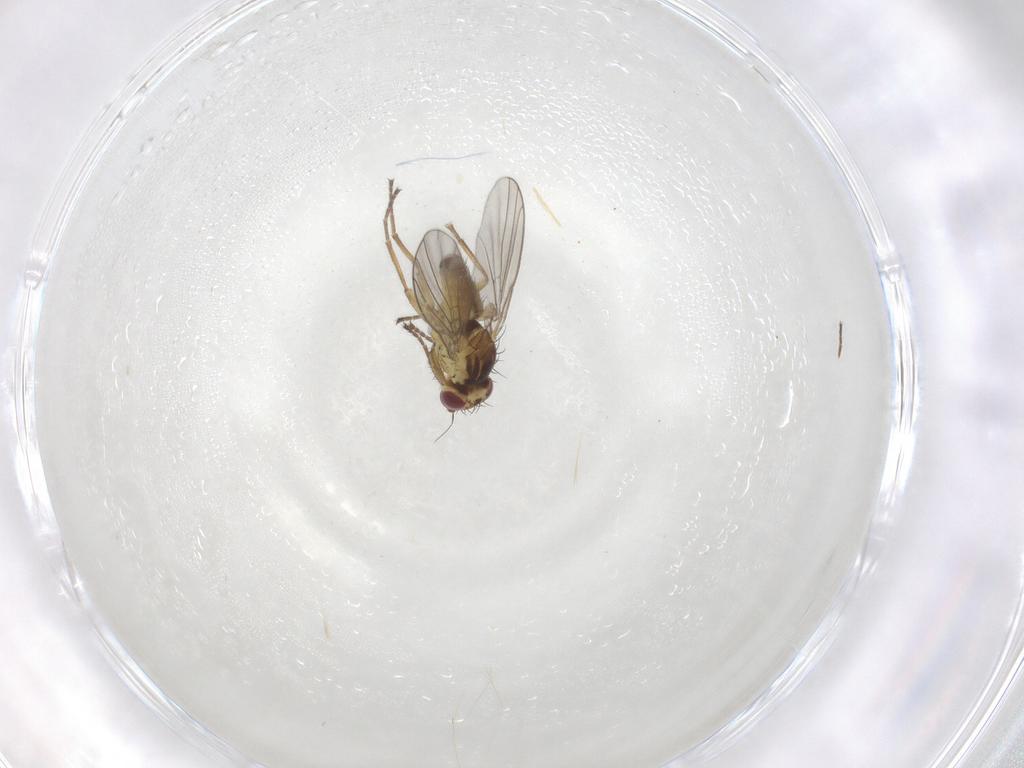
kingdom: Animalia
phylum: Arthropoda
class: Insecta
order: Diptera
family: Agromyzidae
